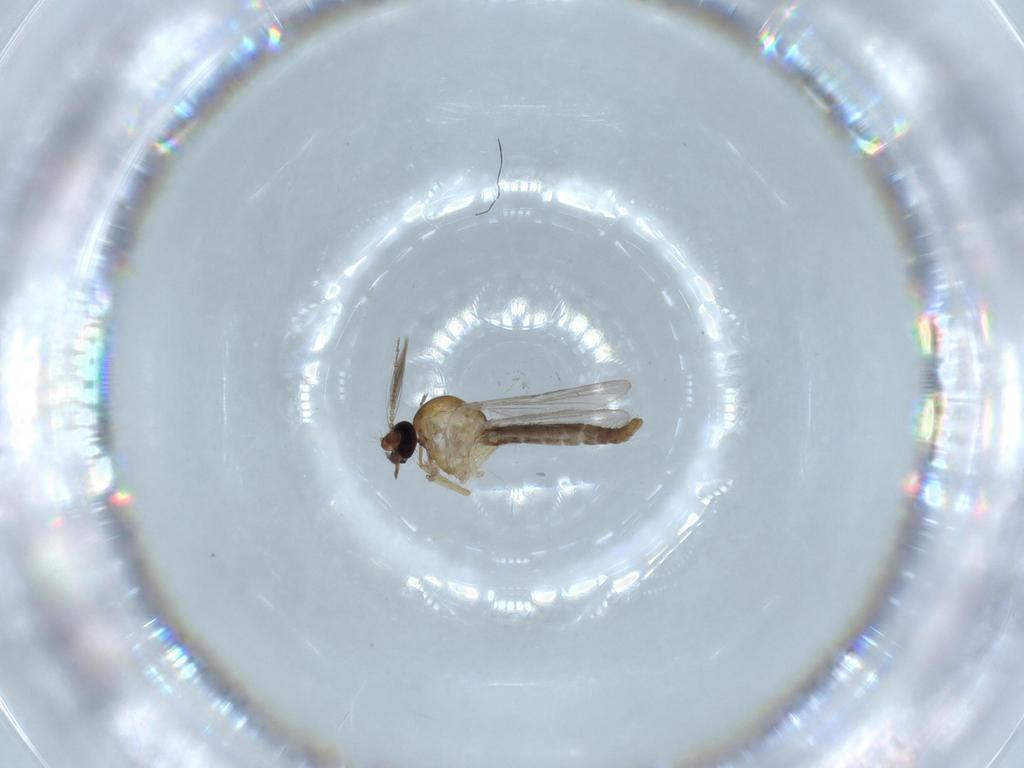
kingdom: Animalia
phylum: Arthropoda
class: Insecta
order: Diptera
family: Ceratopogonidae
